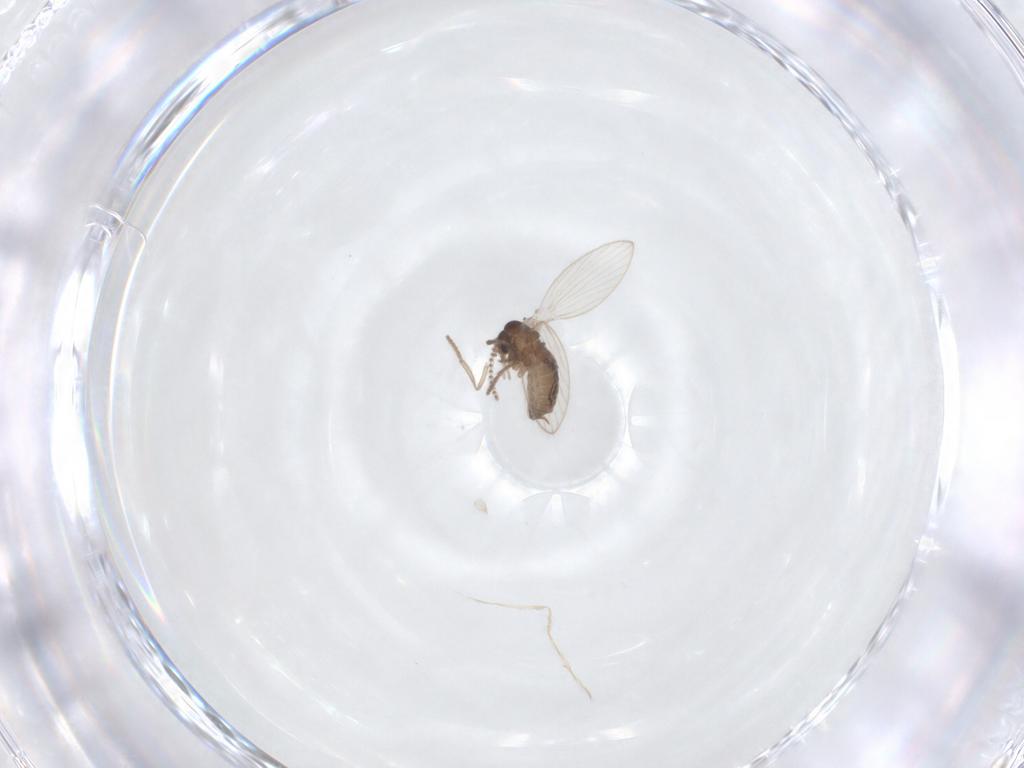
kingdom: Animalia
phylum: Arthropoda
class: Insecta
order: Diptera
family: Psychodidae
